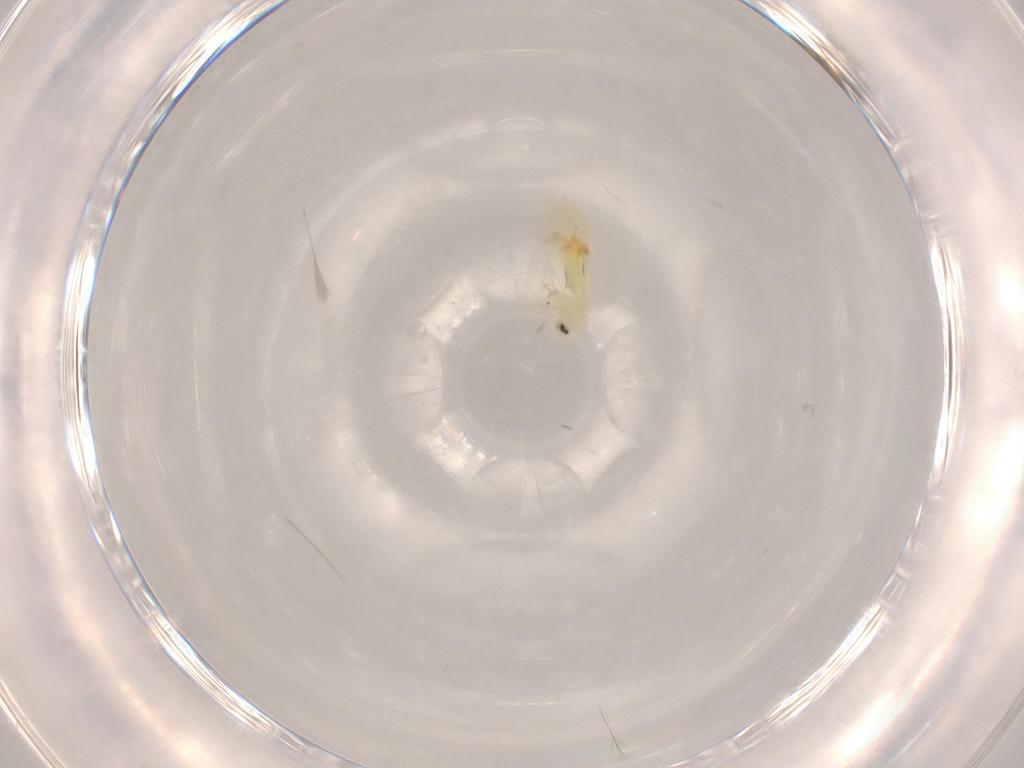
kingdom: Animalia
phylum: Arthropoda
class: Insecta
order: Hemiptera
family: Aleyrodidae
